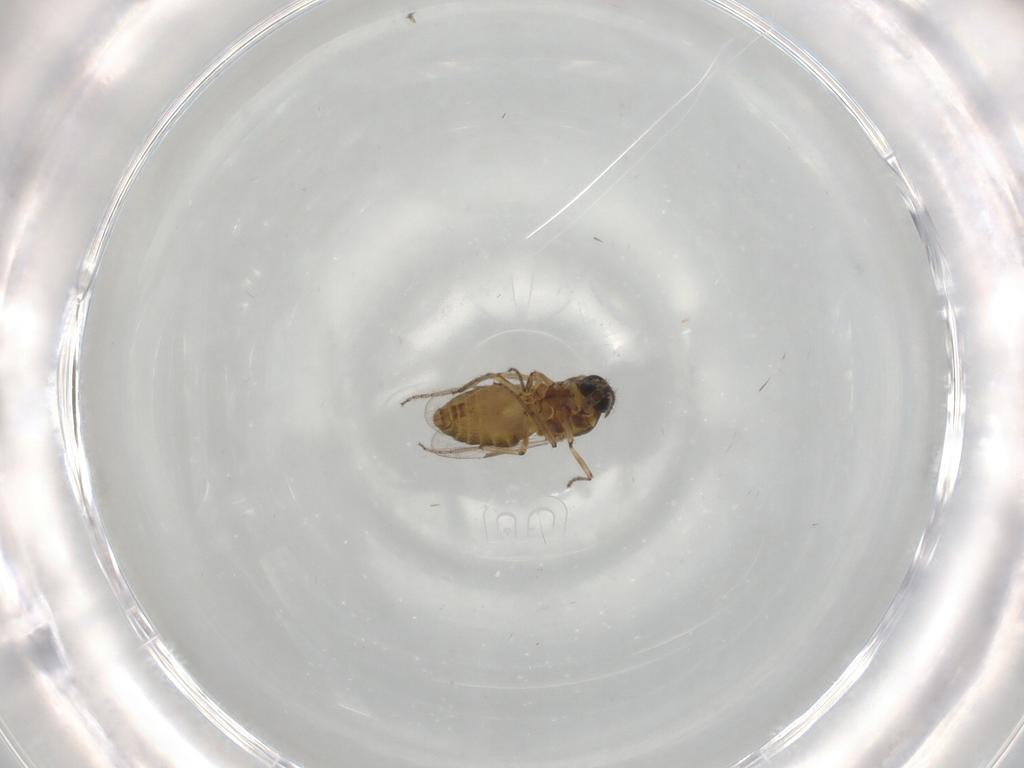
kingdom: Animalia
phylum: Arthropoda
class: Insecta
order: Diptera
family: Ceratopogonidae
